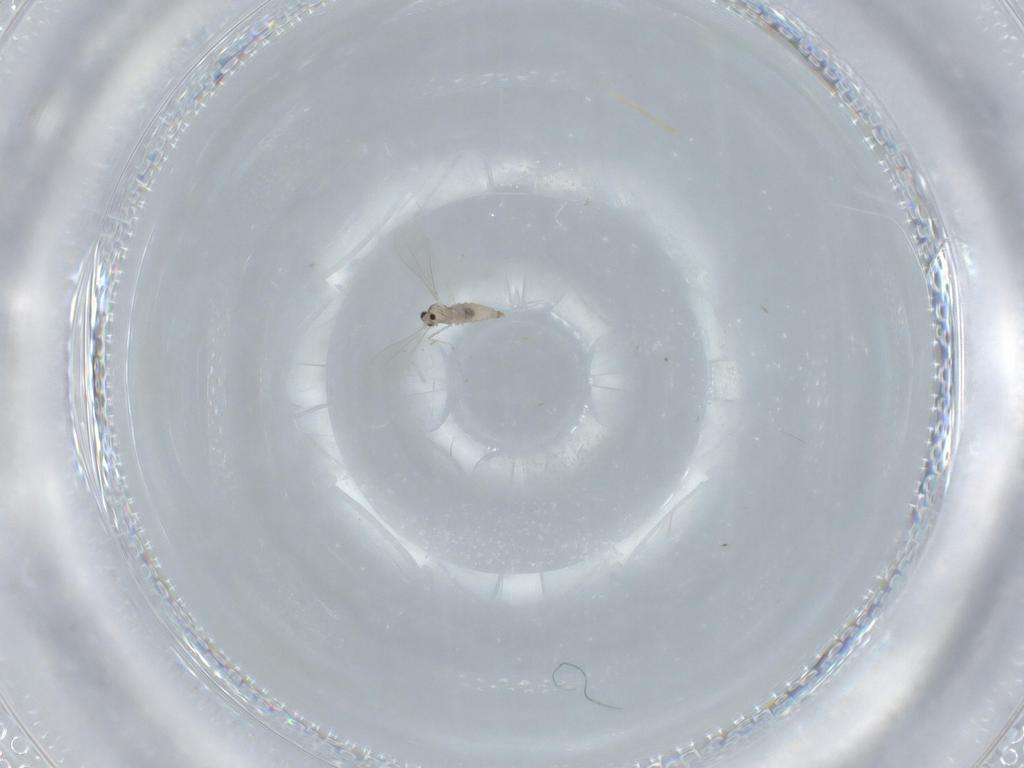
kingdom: Animalia
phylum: Arthropoda
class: Insecta
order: Diptera
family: Cecidomyiidae
